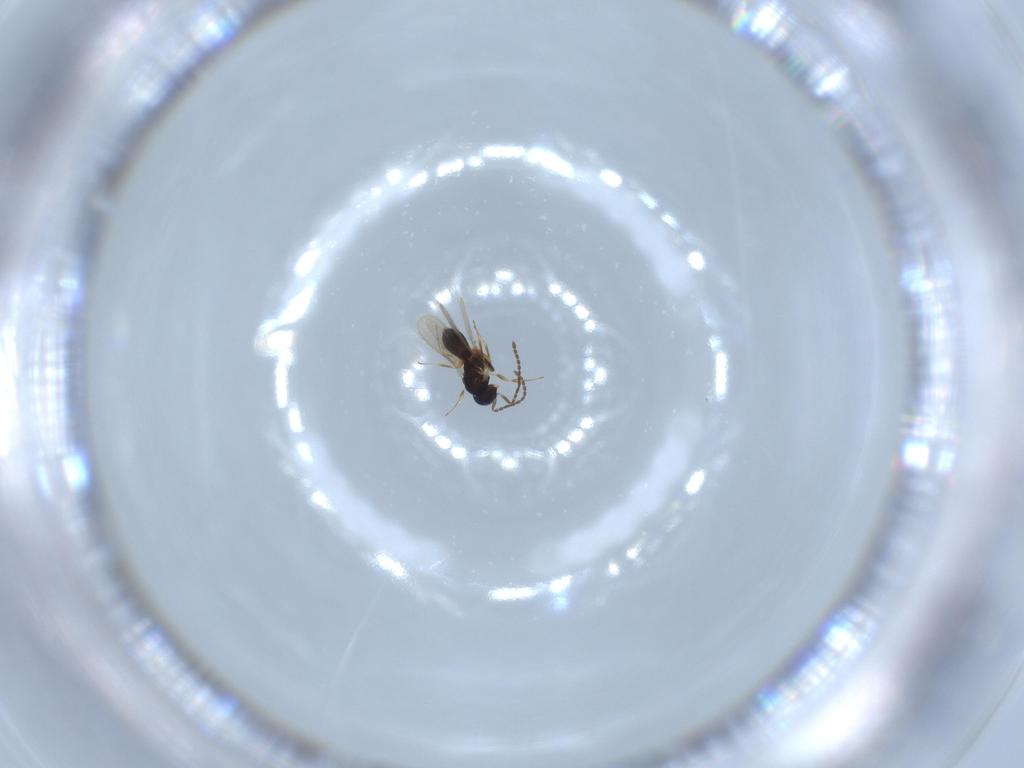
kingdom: Animalia
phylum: Arthropoda
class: Insecta
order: Hymenoptera
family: Scelionidae
